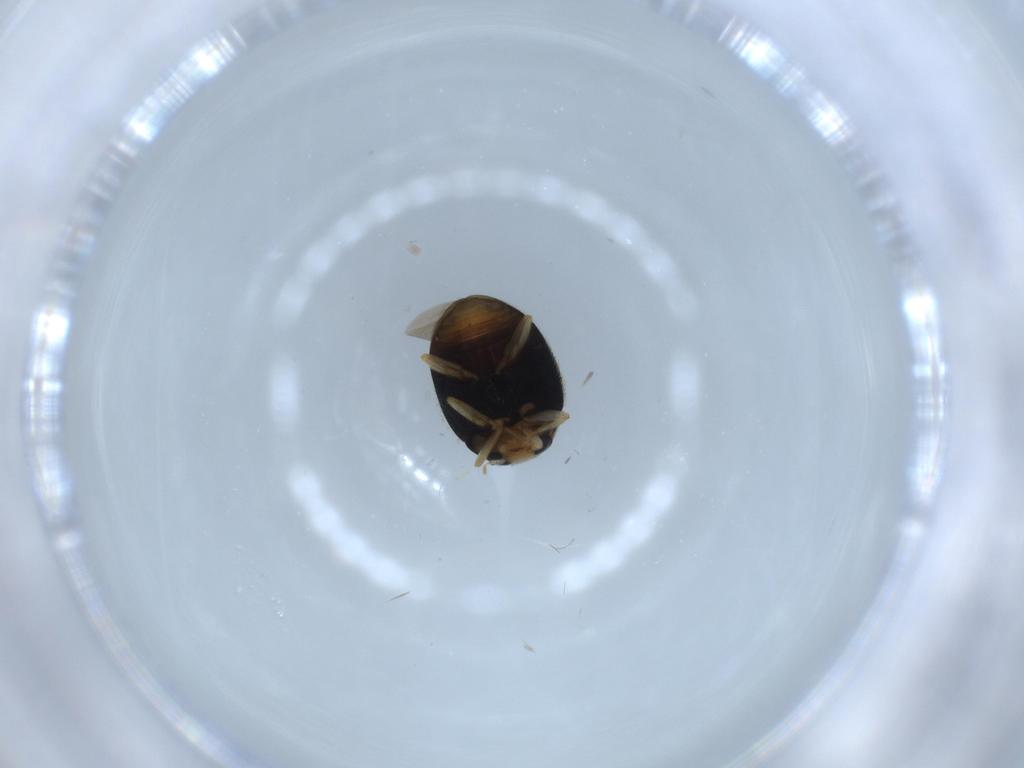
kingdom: Animalia
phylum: Arthropoda
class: Insecta
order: Coleoptera
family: Coccinellidae
